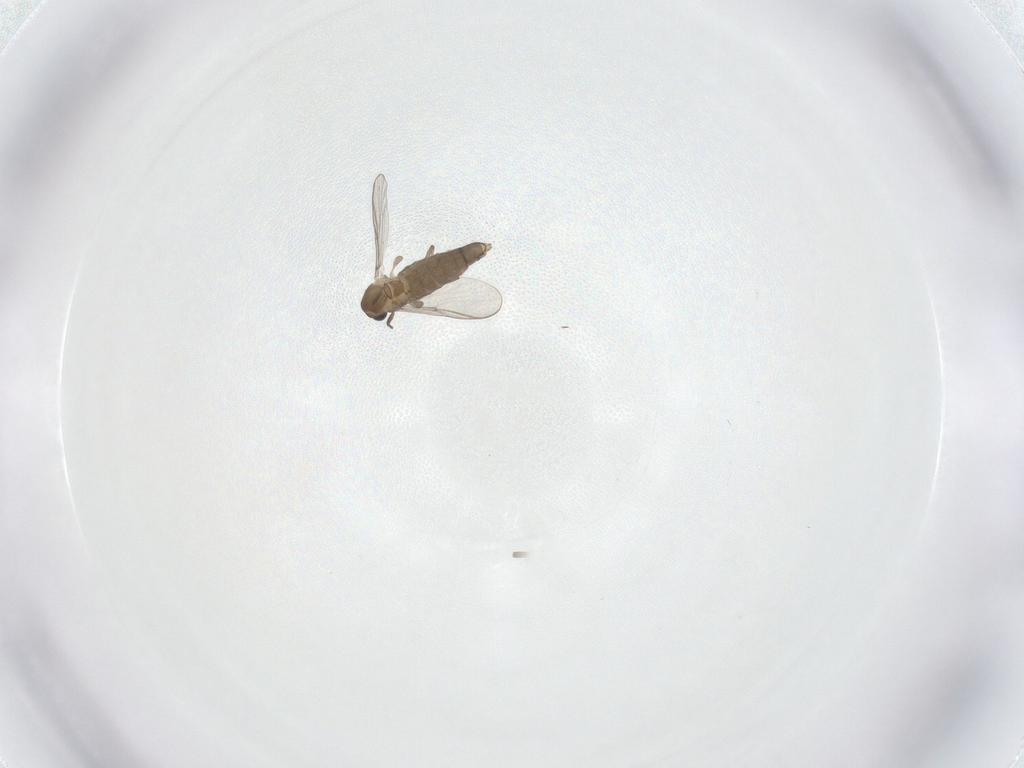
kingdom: Animalia
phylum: Arthropoda
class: Insecta
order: Diptera
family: Chironomidae
